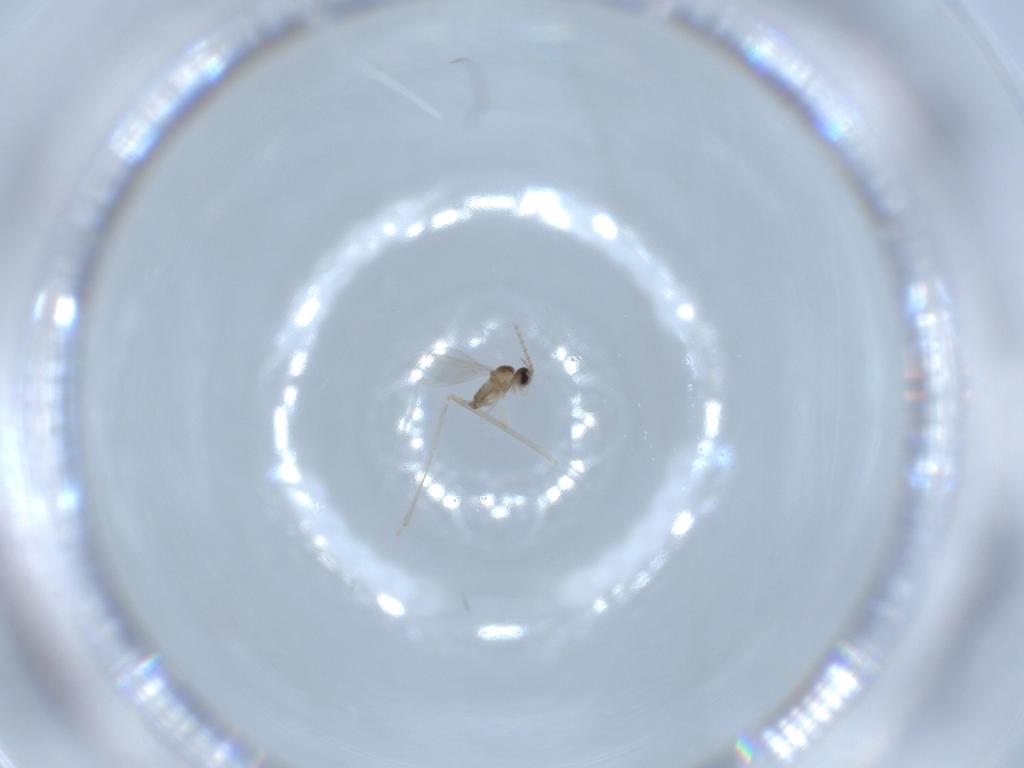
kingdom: Animalia
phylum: Arthropoda
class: Insecta
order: Diptera
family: Cecidomyiidae
